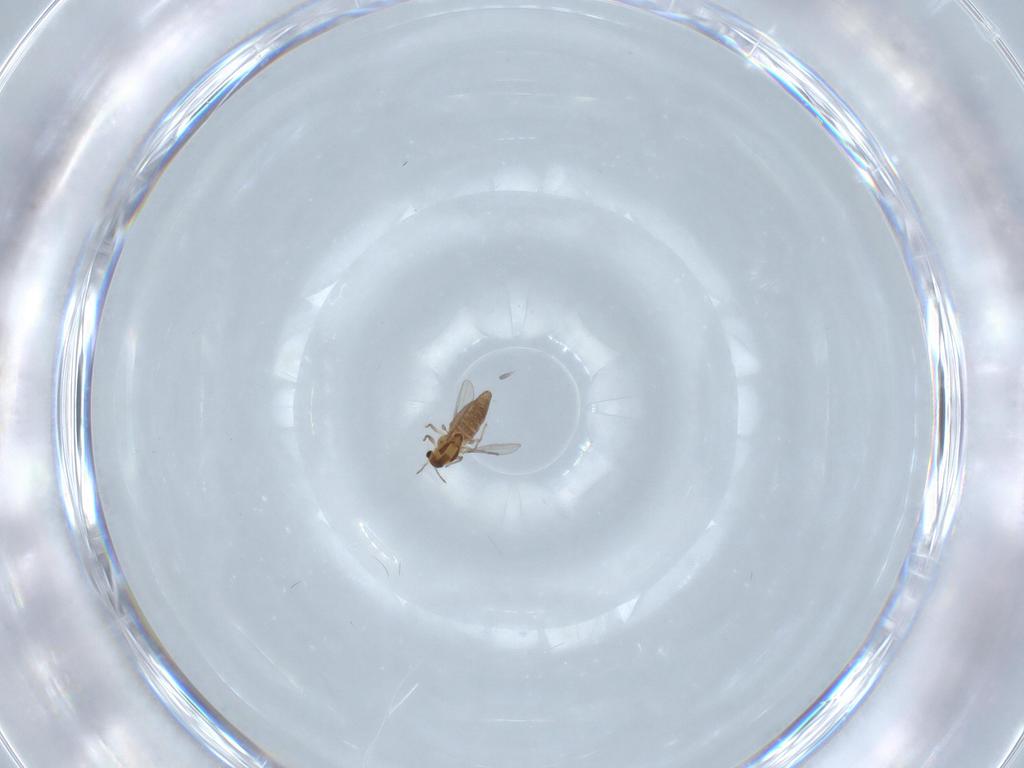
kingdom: Animalia
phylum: Arthropoda
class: Insecta
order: Diptera
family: Chironomidae
